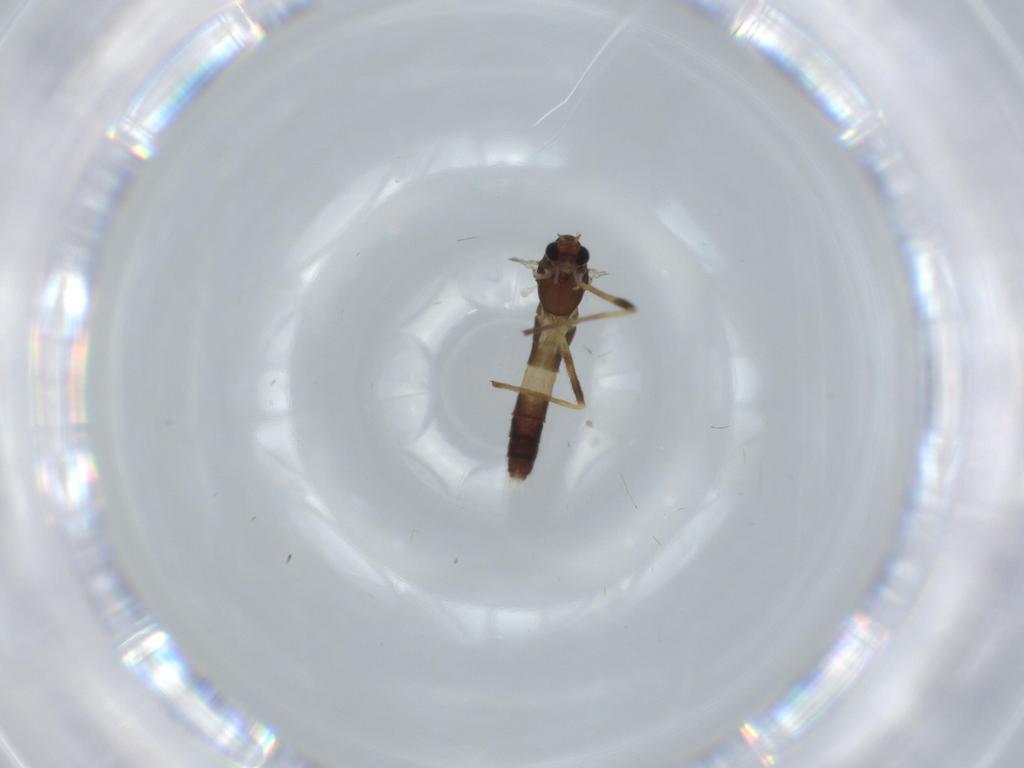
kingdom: Animalia
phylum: Arthropoda
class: Insecta
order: Diptera
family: Chironomidae
